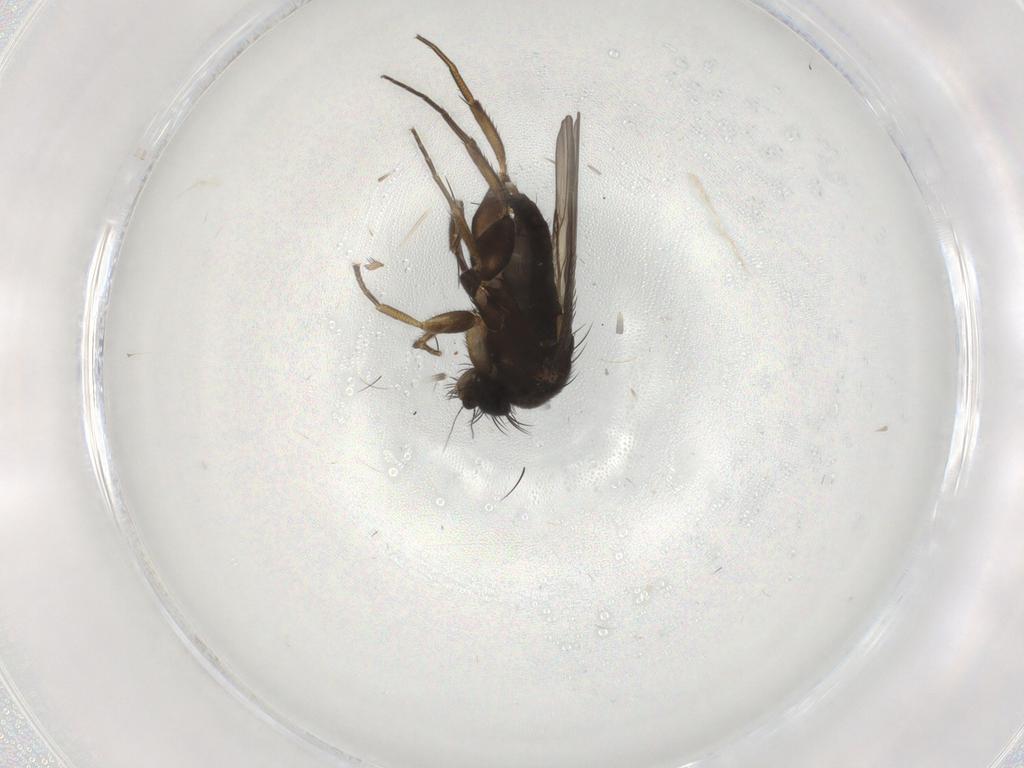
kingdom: Animalia
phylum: Arthropoda
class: Insecta
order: Diptera
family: Phoridae
